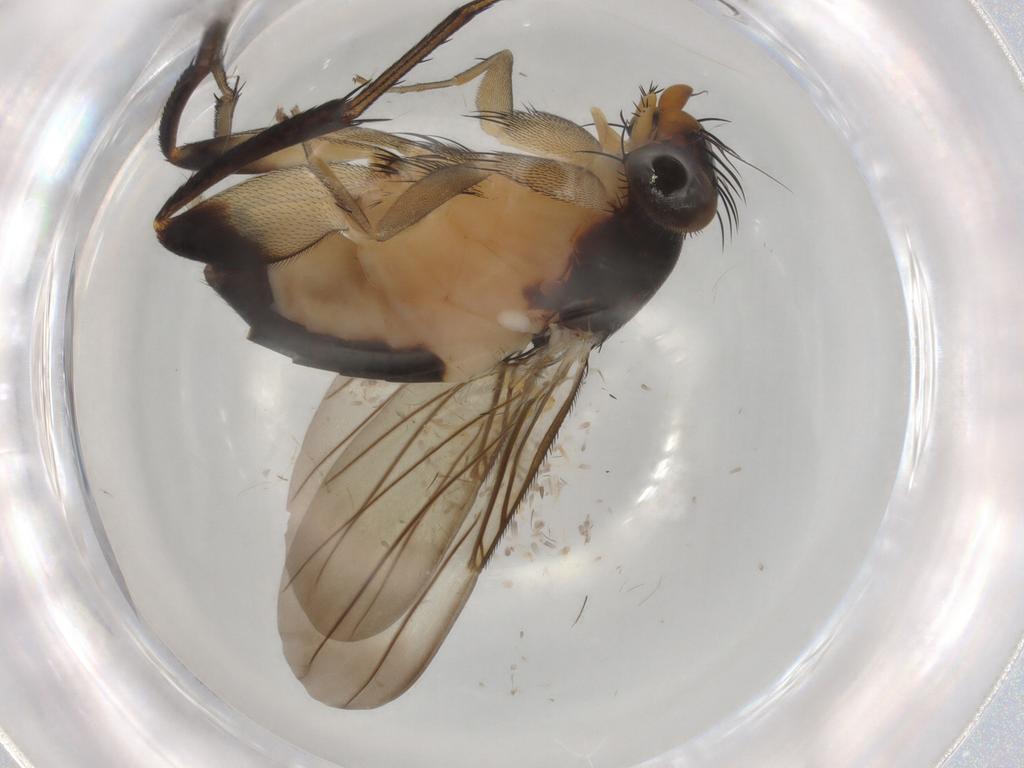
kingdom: Animalia
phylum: Arthropoda
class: Insecta
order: Diptera
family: Phoridae
